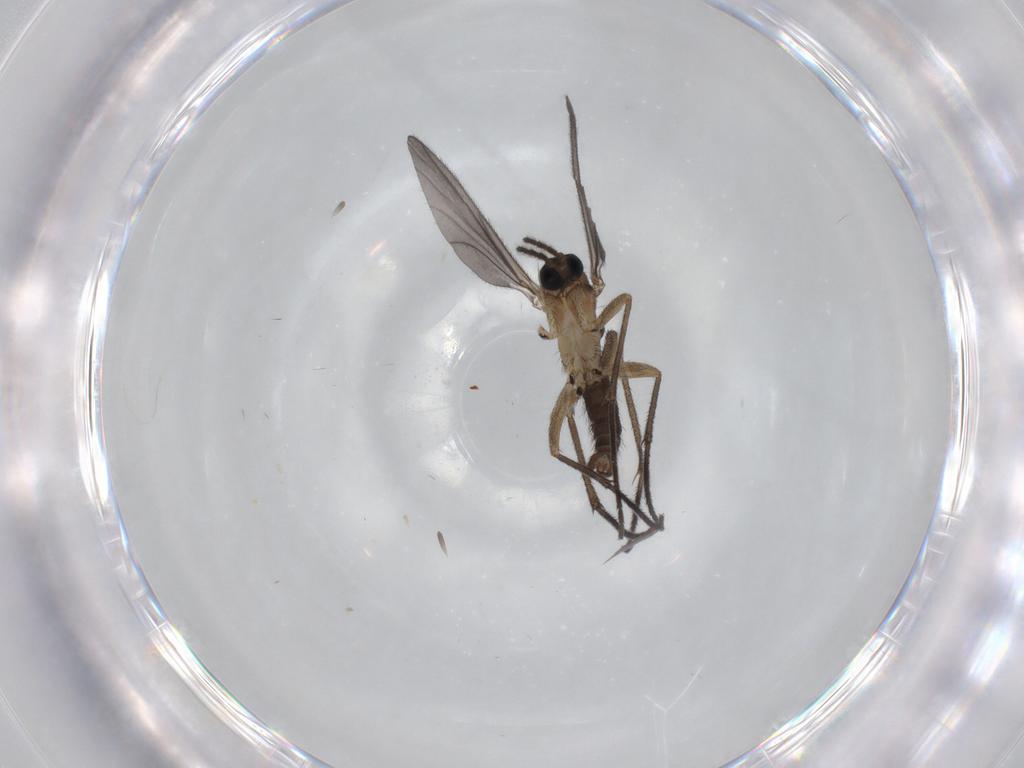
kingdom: Animalia
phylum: Arthropoda
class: Insecta
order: Diptera
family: Sciaridae
